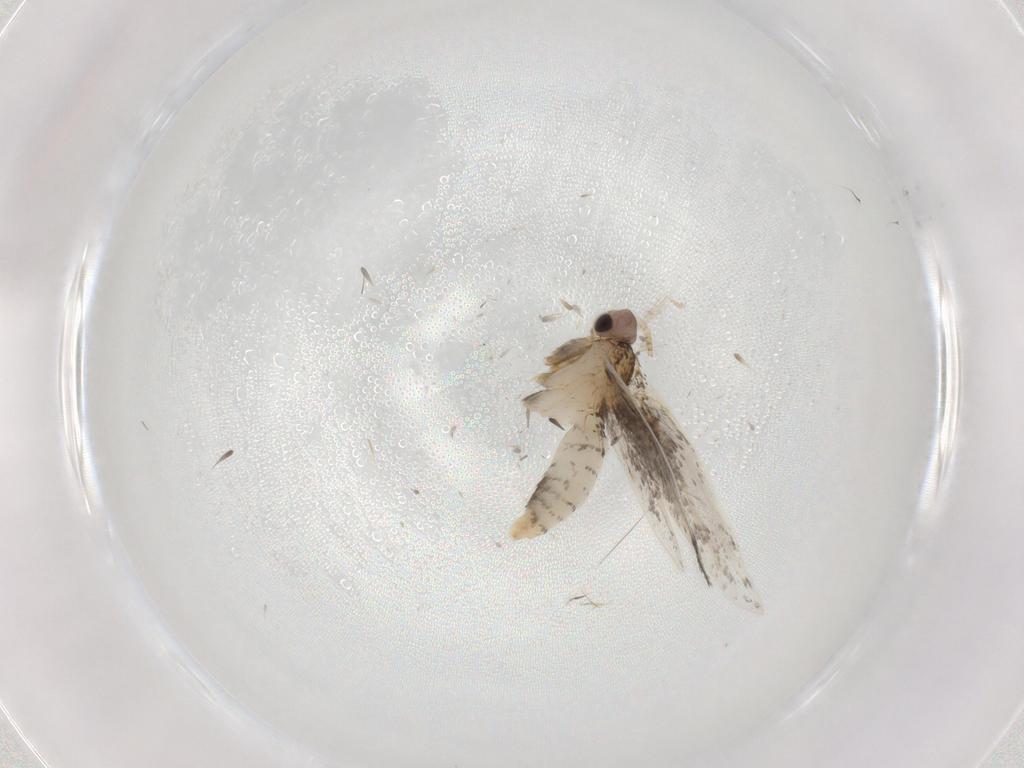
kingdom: Animalia
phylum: Arthropoda
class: Insecta
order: Lepidoptera
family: Tineidae
